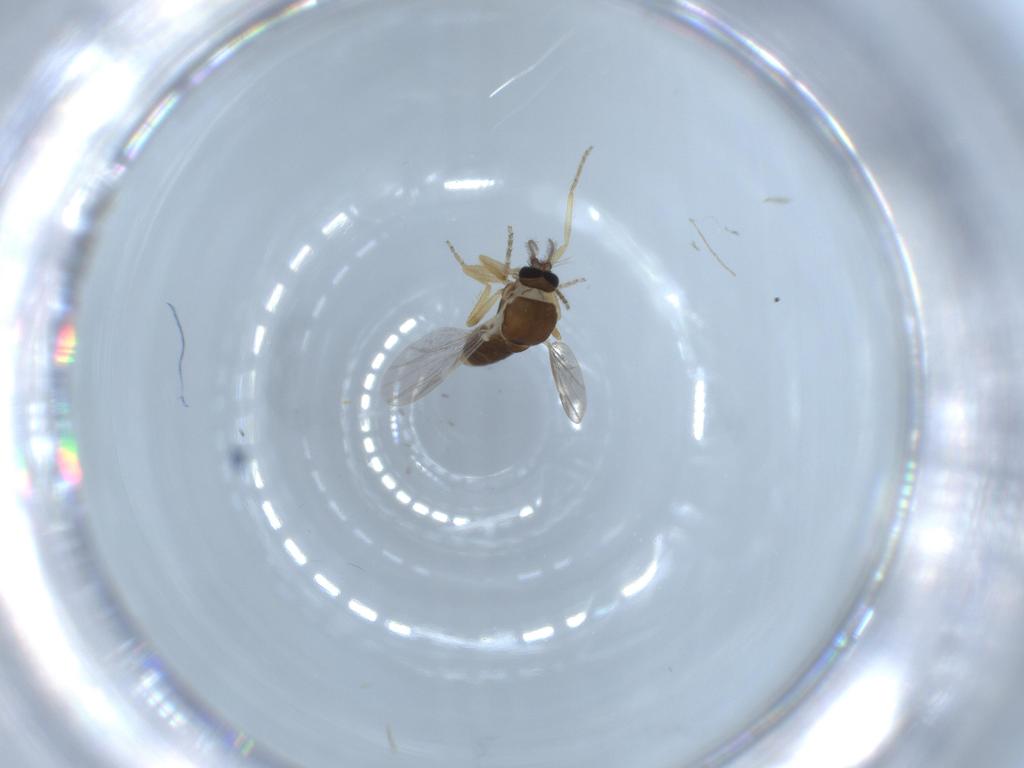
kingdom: Animalia
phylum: Arthropoda
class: Insecta
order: Diptera
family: Ceratopogonidae
